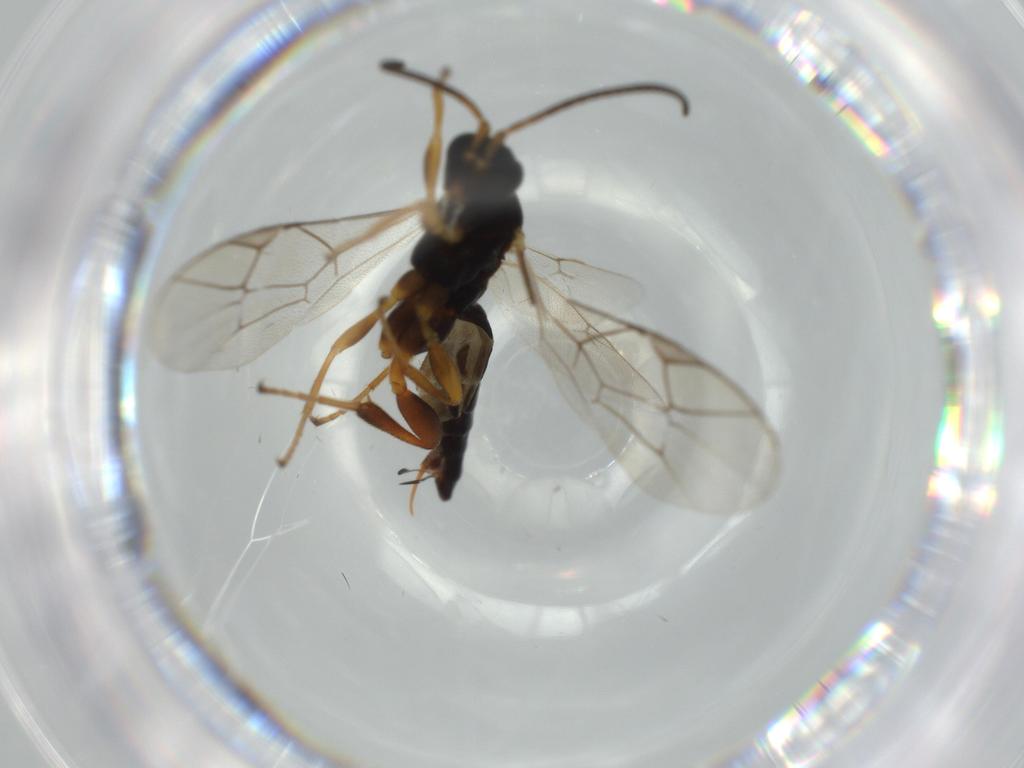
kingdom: Animalia
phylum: Arthropoda
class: Insecta
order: Hymenoptera
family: Ichneumonidae
